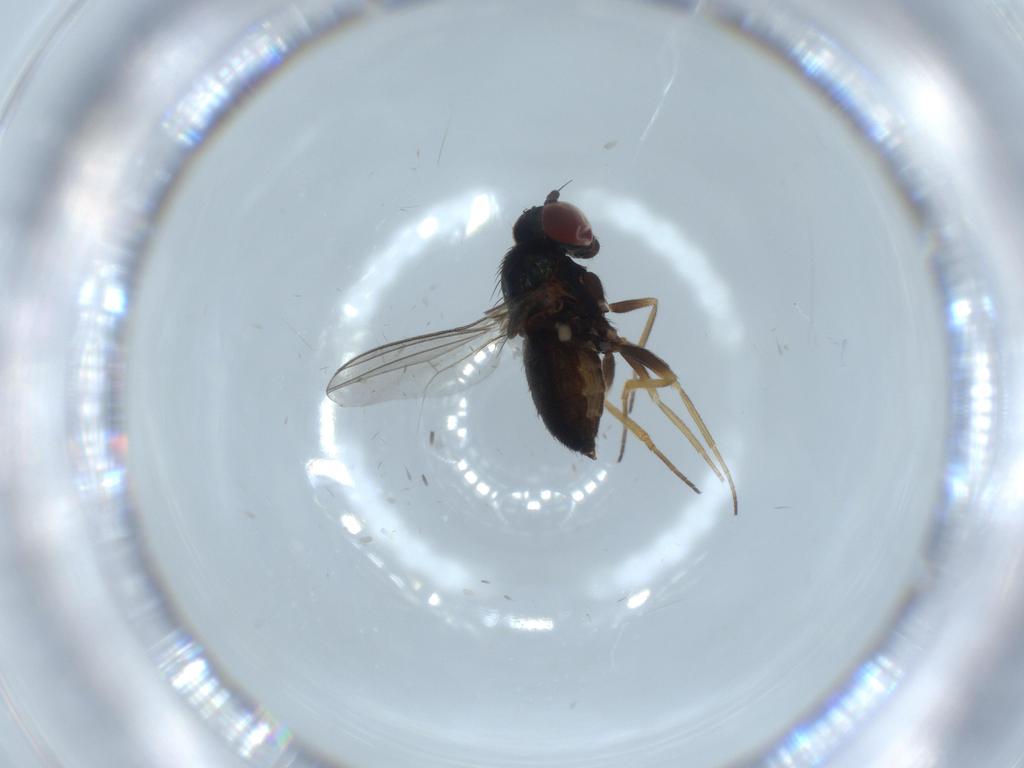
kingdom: Animalia
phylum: Arthropoda
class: Insecta
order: Diptera
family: Dolichopodidae
